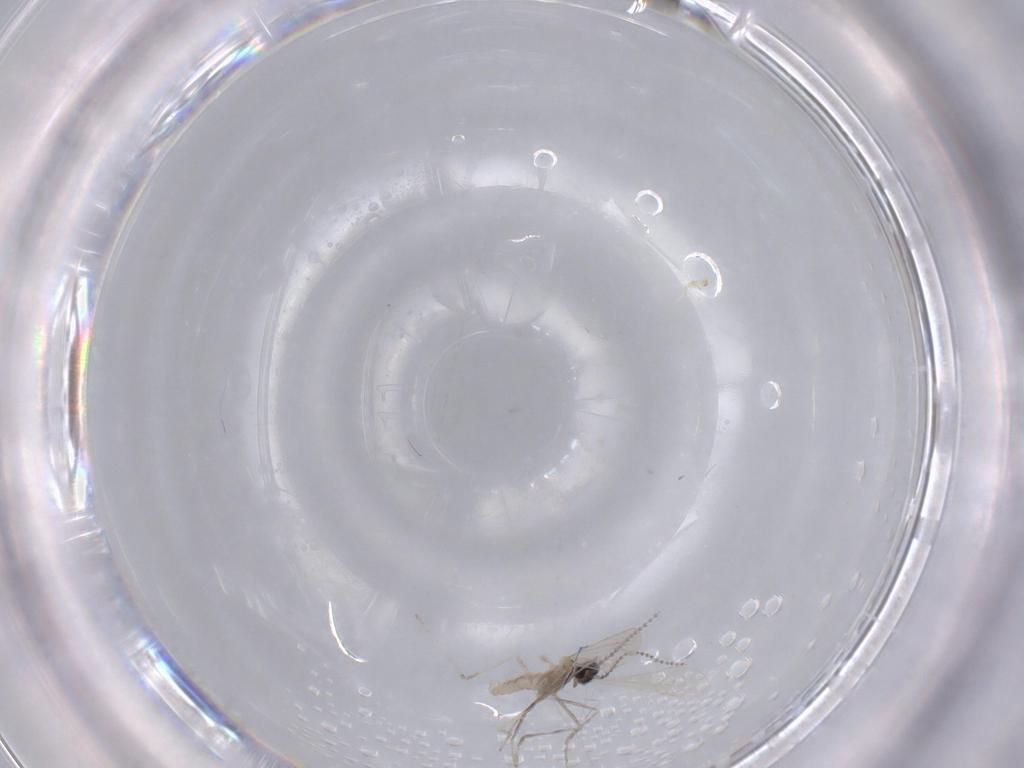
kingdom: Animalia
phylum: Arthropoda
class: Insecta
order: Diptera
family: Cecidomyiidae
